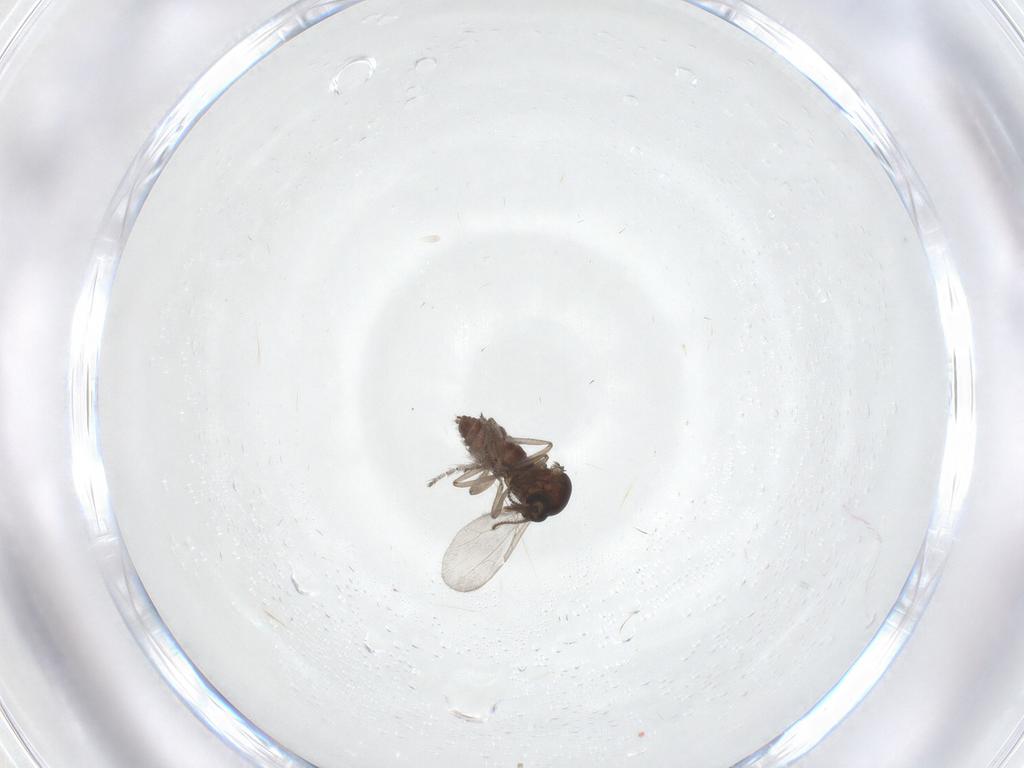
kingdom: Animalia
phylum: Arthropoda
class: Insecta
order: Diptera
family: Ceratopogonidae
